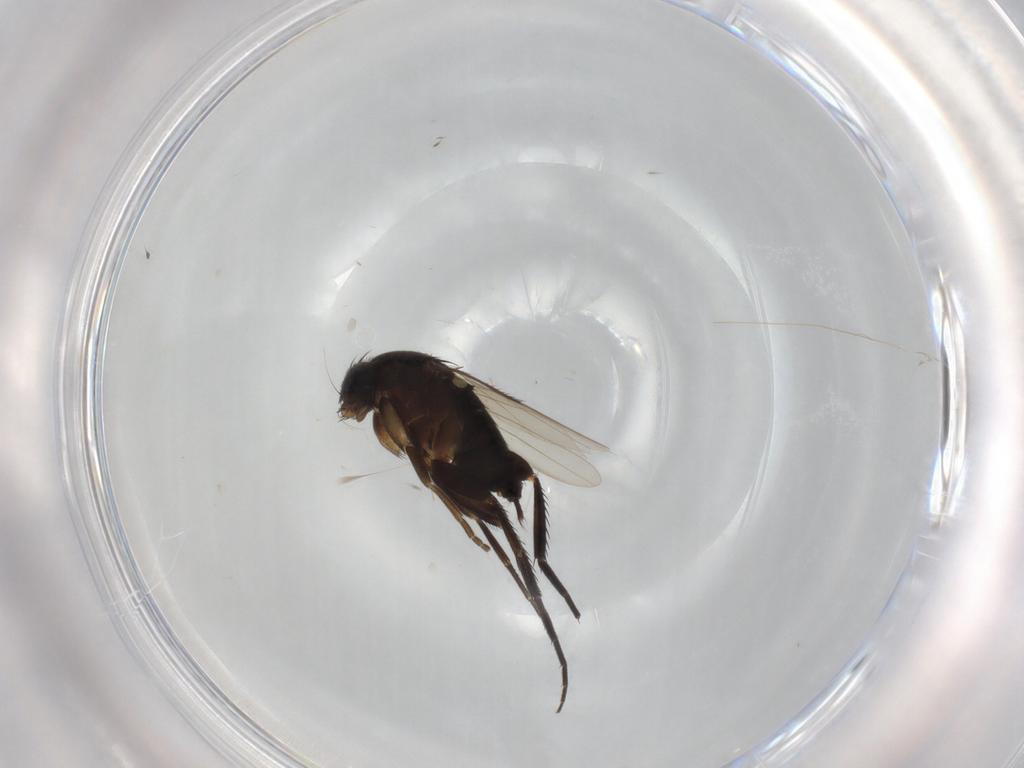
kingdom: Animalia
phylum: Arthropoda
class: Insecta
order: Diptera
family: Phoridae
